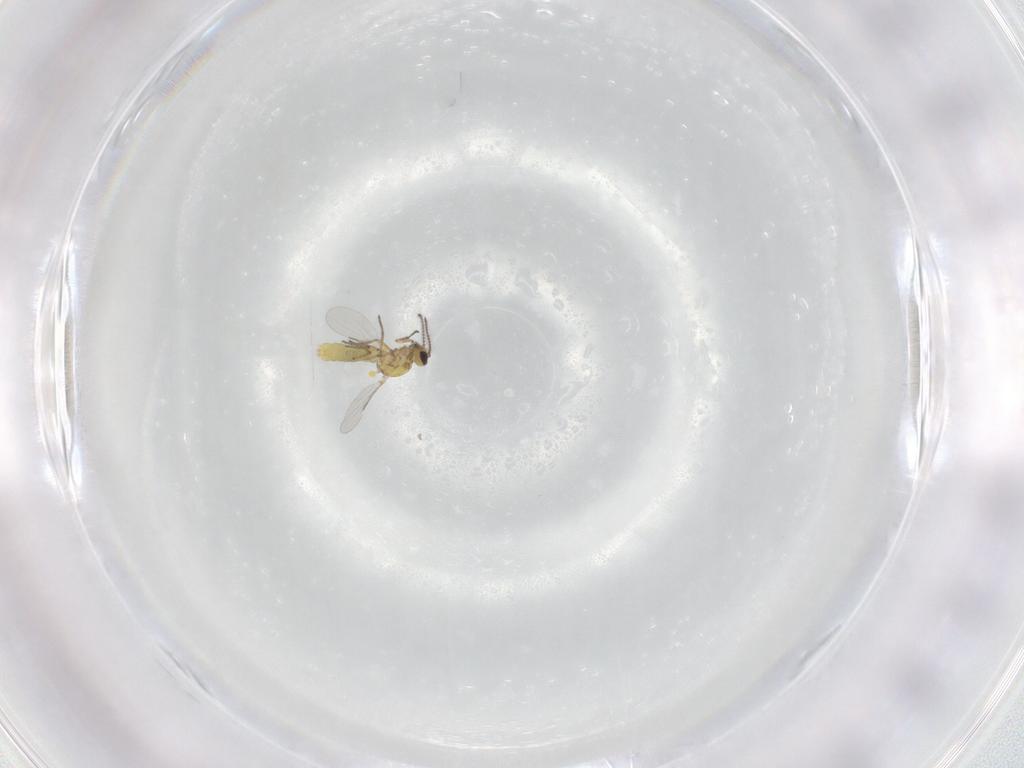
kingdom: Animalia
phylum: Arthropoda
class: Insecta
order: Diptera
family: Ceratopogonidae
